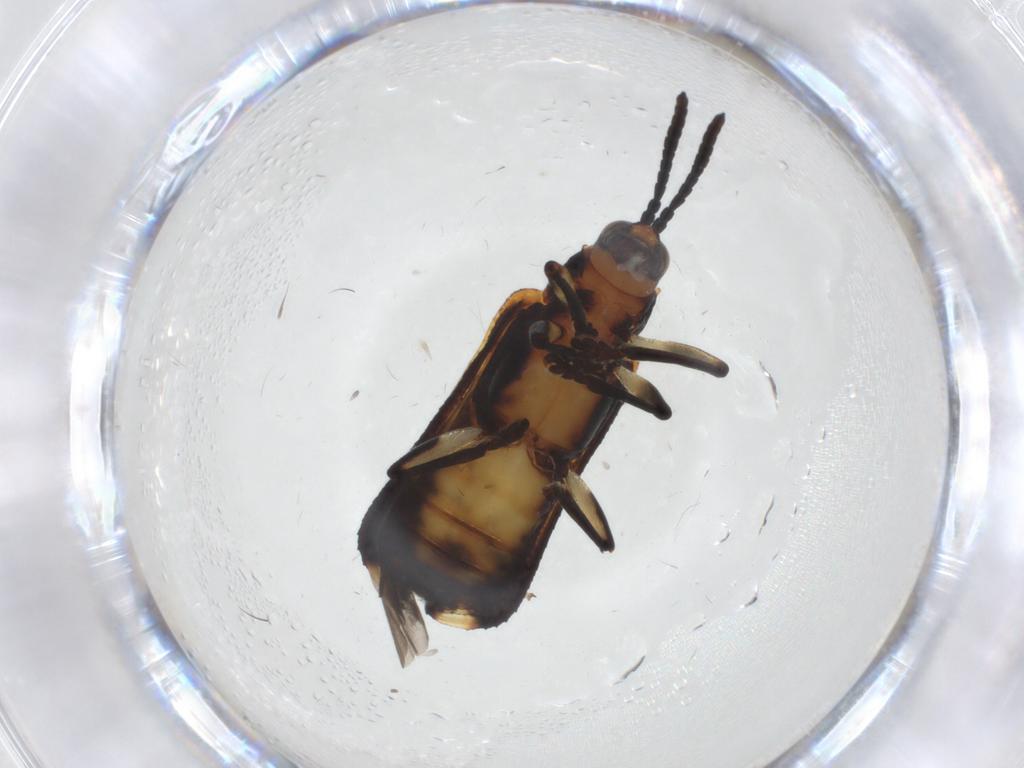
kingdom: Animalia
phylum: Arthropoda
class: Insecta
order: Coleoptera
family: Chrysomelidae
